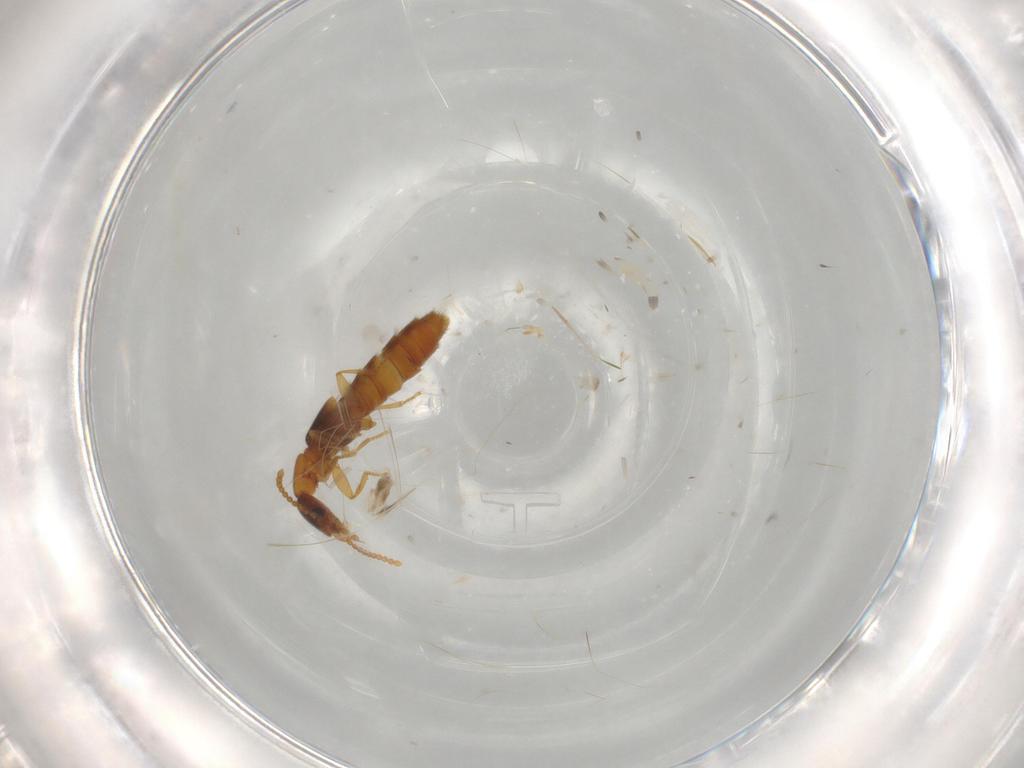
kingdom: Animalia
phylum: Arthropoda
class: Insecta
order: Coleoptera
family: Staphylinidae
